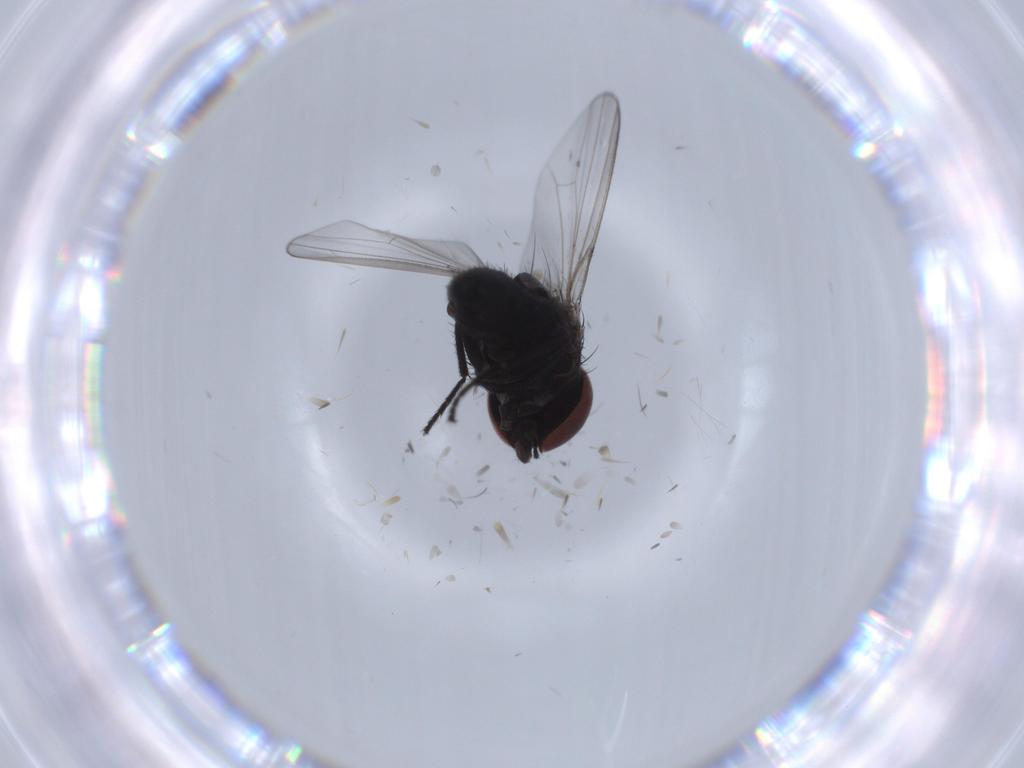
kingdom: Animalia
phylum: Arthropoda
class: Insecta
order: Diptera
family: Milichiidae
